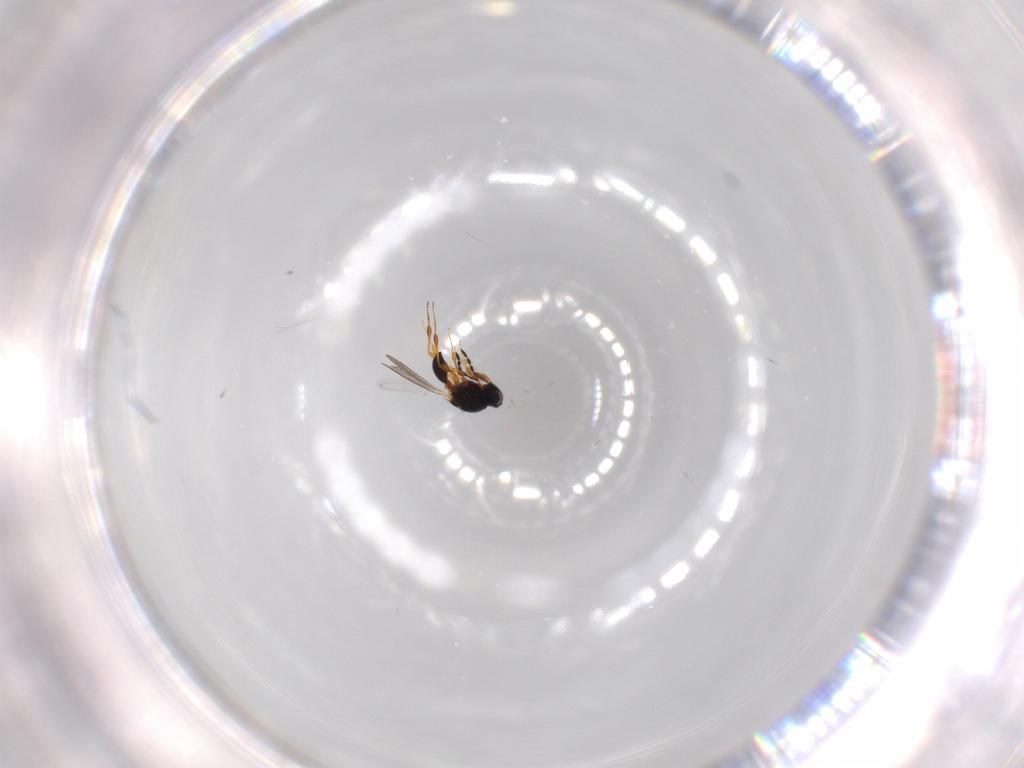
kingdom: Animalia
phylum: Arthropoda
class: Insecta
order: Hymenoptera
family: Platygastridae
